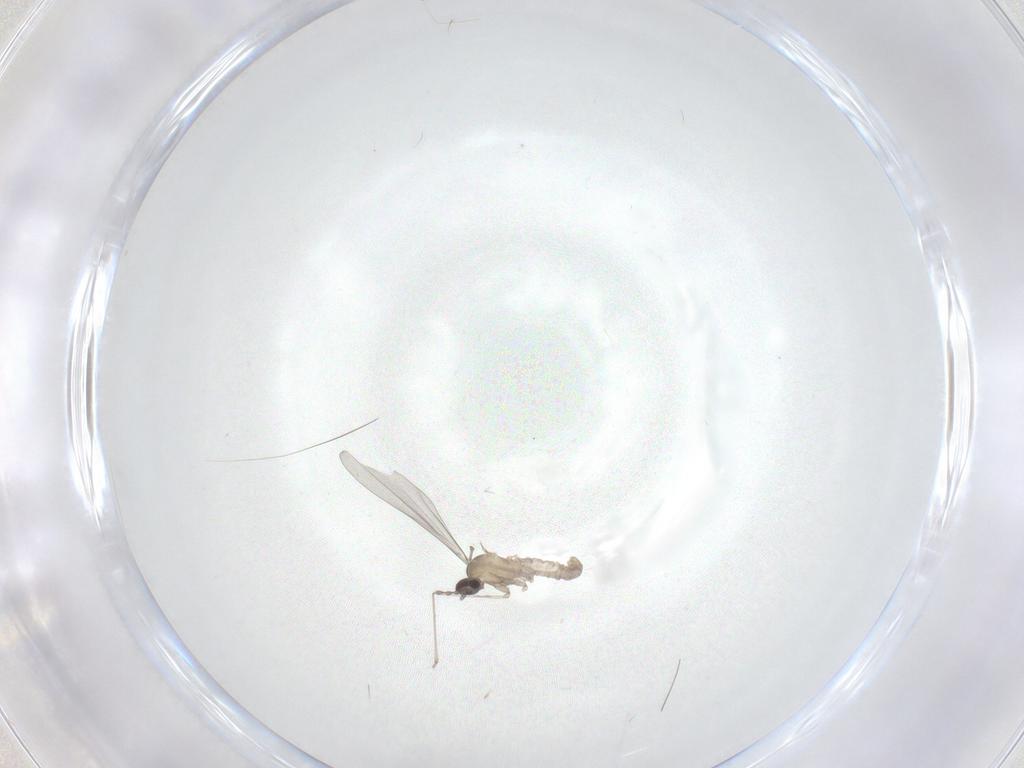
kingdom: Animalia
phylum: Arthropoda
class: Insecta
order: Diptera
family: Cecidomyiidae
